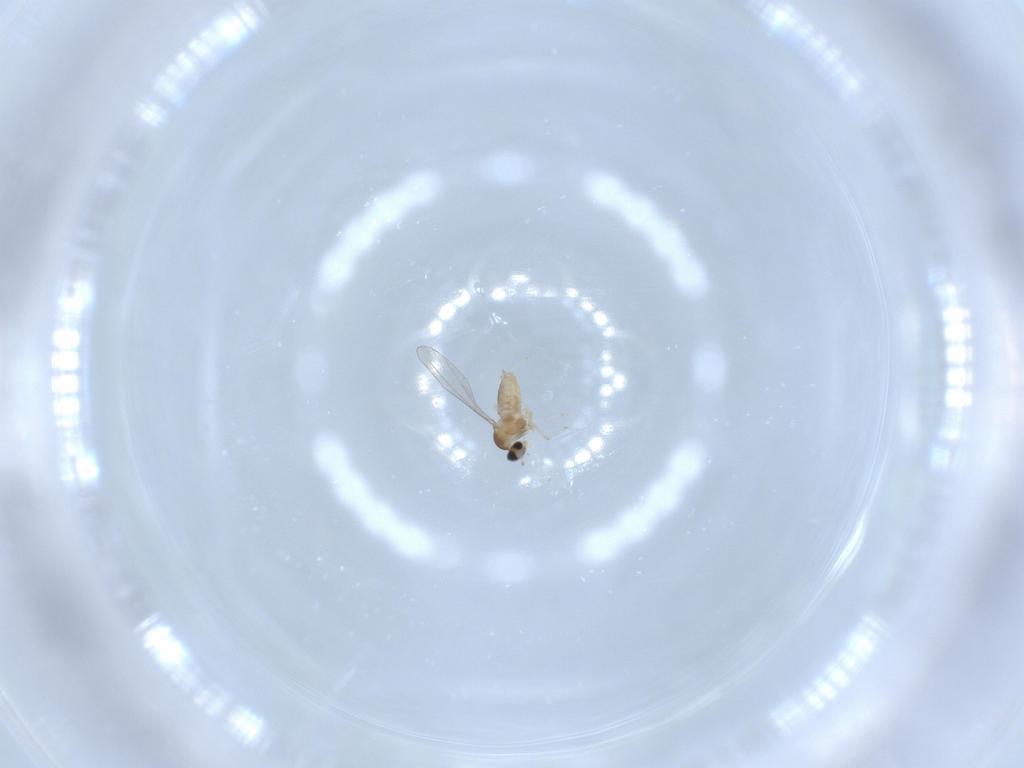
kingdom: Animalia
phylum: Arthropoda
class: Insecta
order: Diptera
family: Cecidomyiidae
